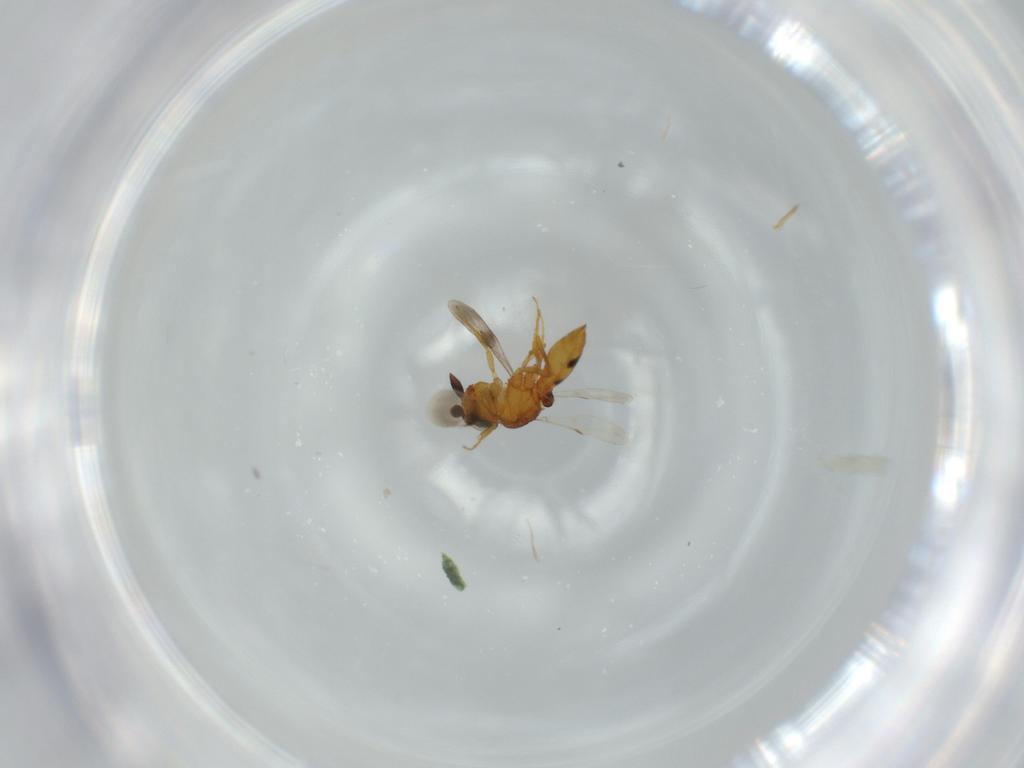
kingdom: Animalia
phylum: Arthropoda
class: Insecta
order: Hymenoptera
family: Scelionidae
